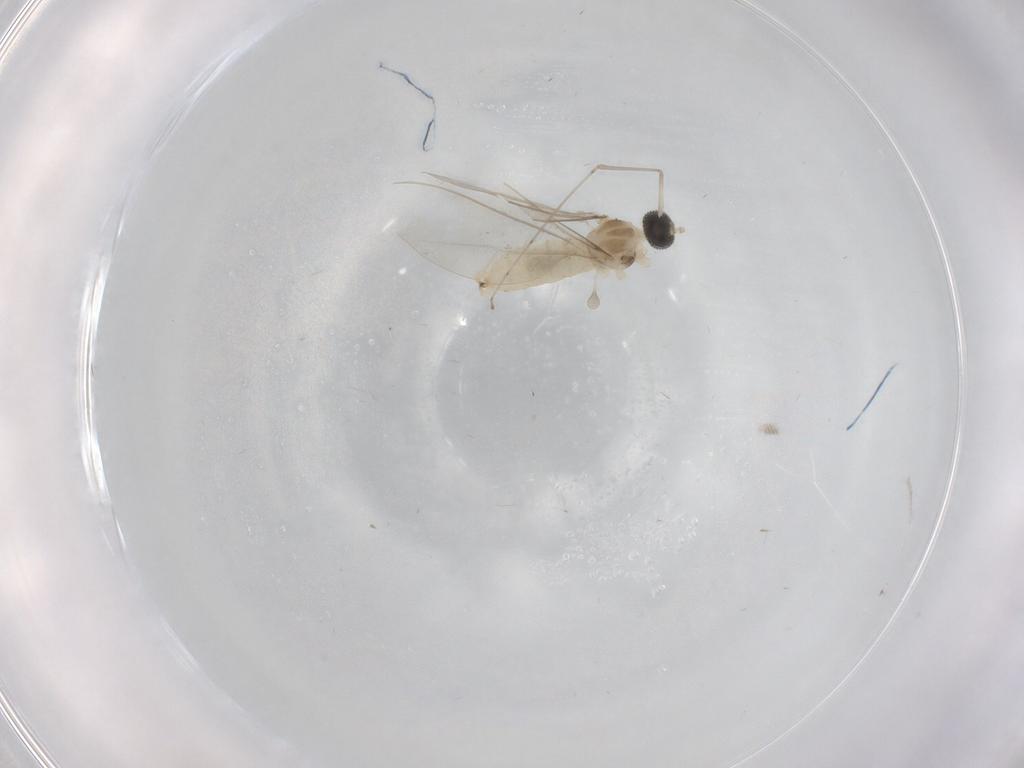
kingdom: Animalia
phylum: Arthropoda
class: Insecta
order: Diptera
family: Cecidomyiidae
